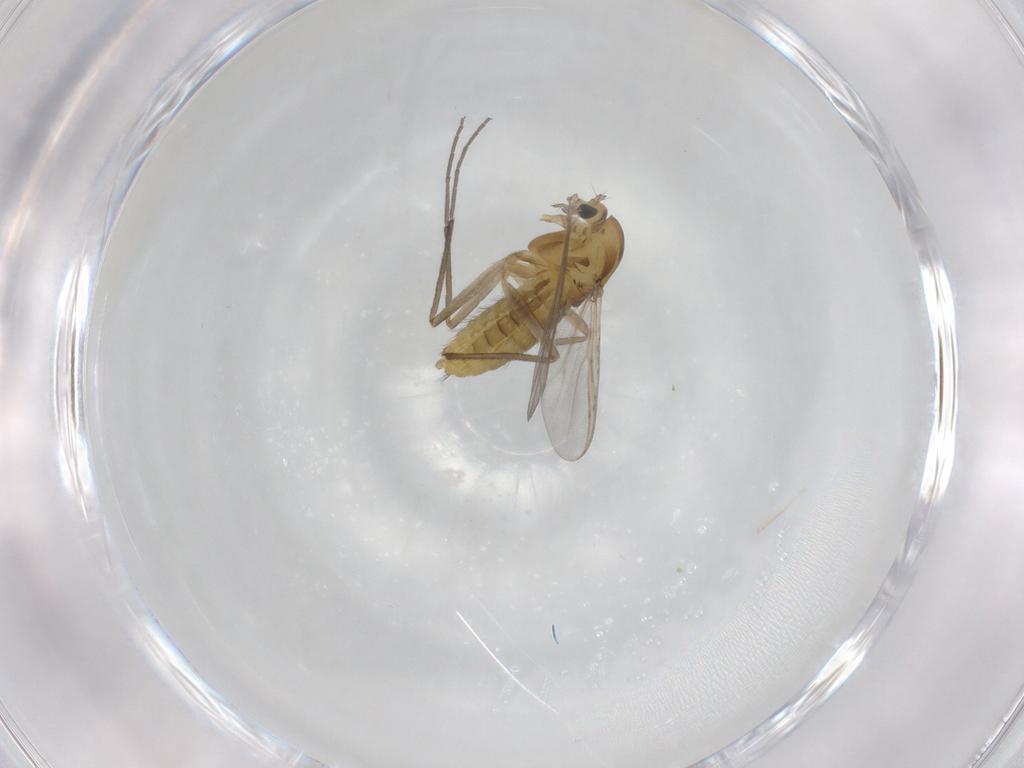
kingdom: Animalia
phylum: Arthropoda
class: Insecta
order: Diptera
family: Chironomidae
